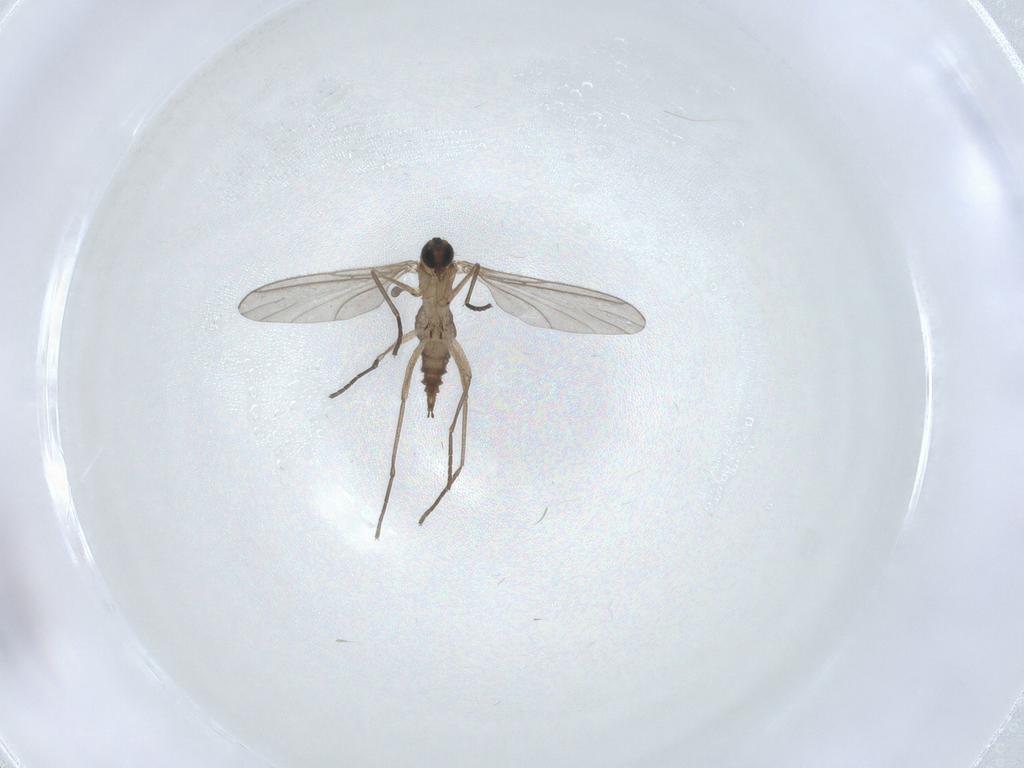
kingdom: Animalia
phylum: Arthropoda
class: Insecta
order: Diptera
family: Sciaridae
